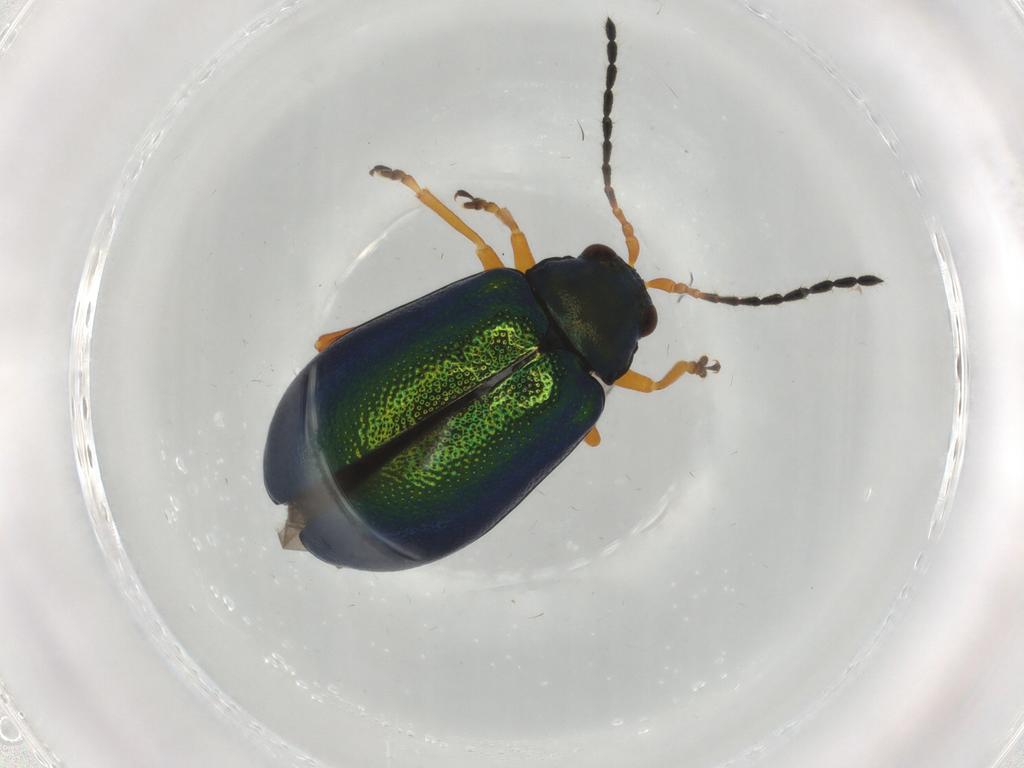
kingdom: Animalia
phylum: Arthropoda
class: Insecta
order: Coleoptera
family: Chrysomelidae
